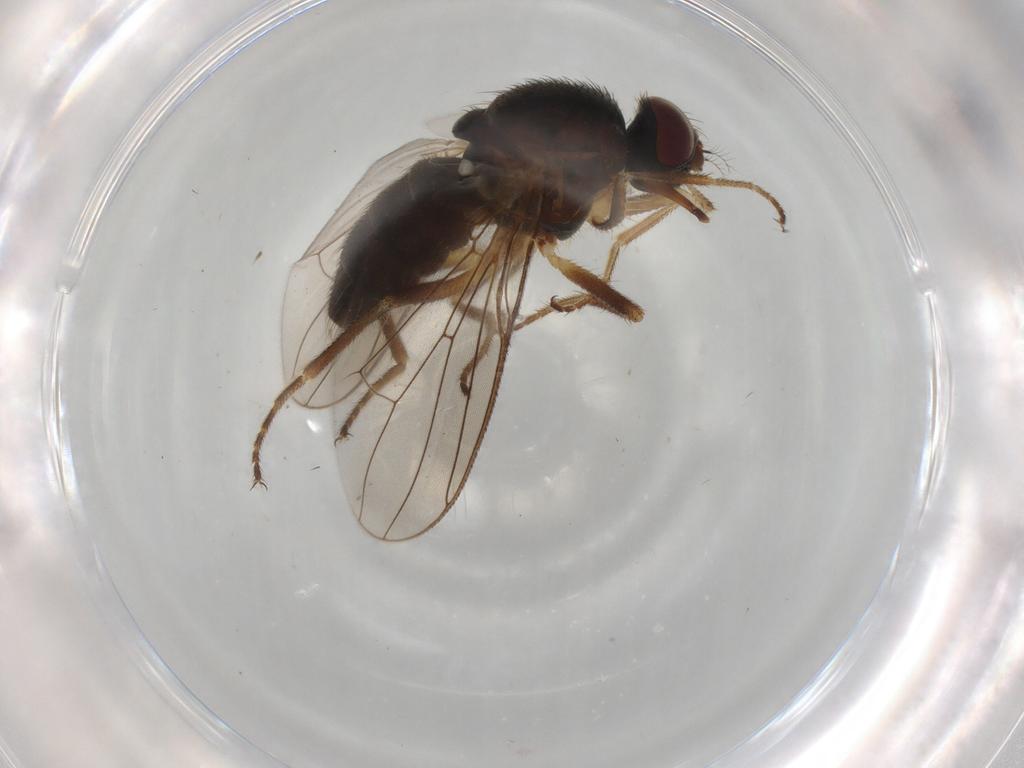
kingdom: Animalia
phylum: Arthropoda
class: Insecta
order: Diptera
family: Muscidae
